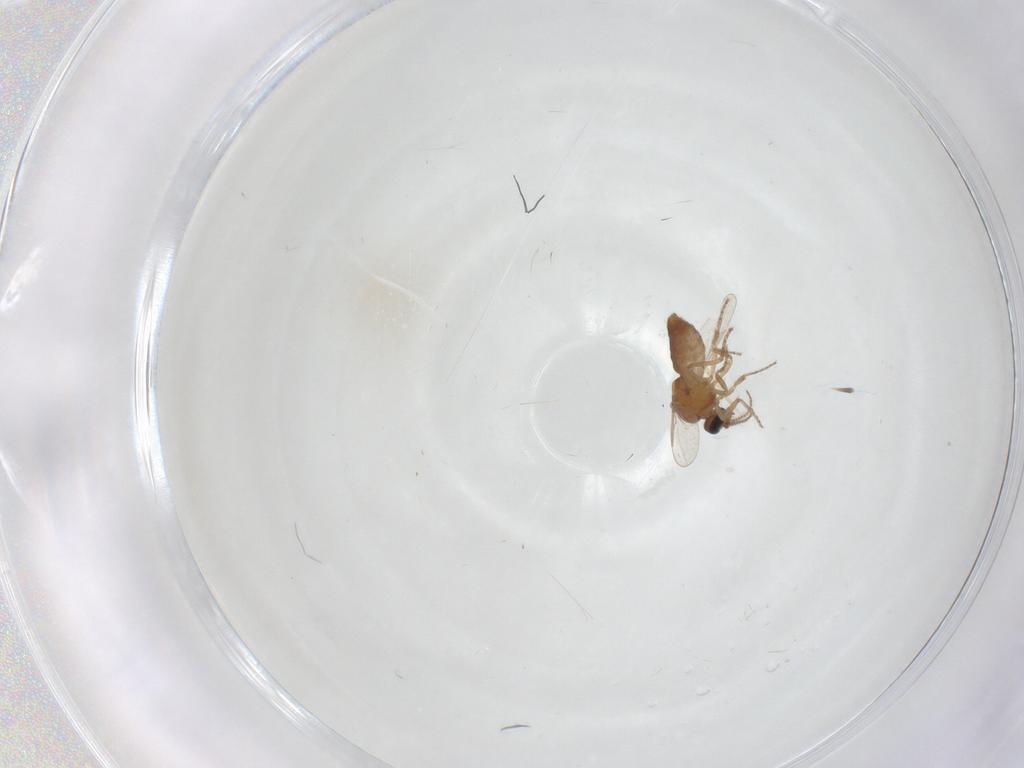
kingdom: Animalia
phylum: Arthropoda
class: Insecta
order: Diptera
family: Ceratopogonidae
